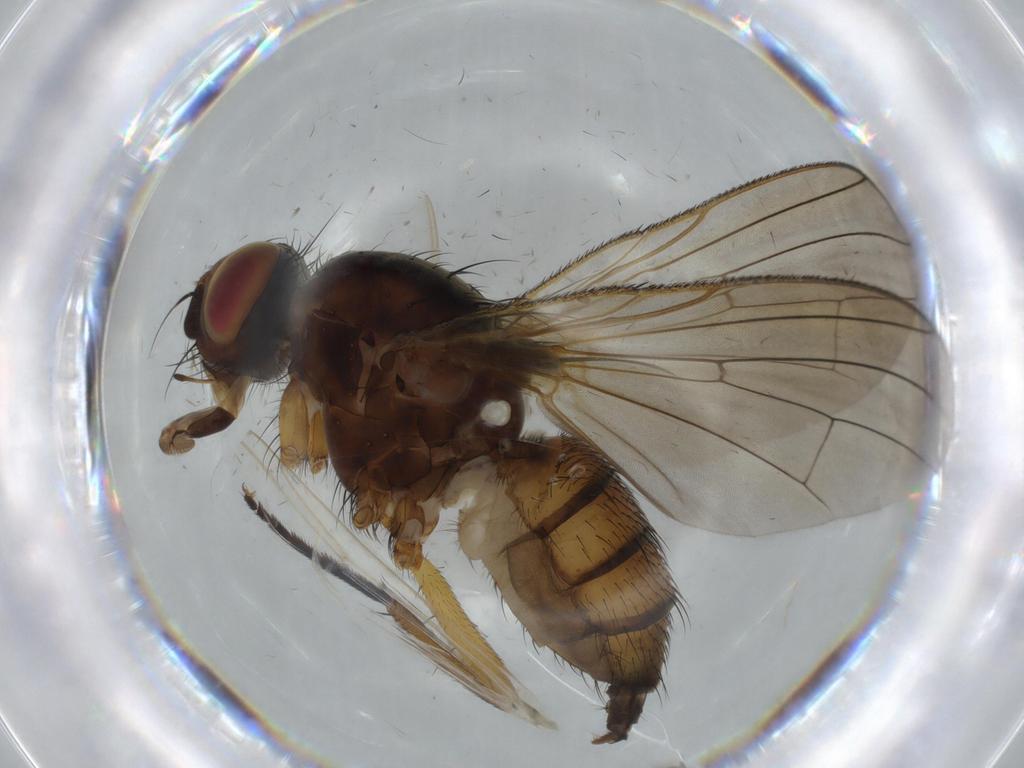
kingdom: Animalia
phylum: Arthropoda
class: Insecta
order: Diptera
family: Anthomyiidae
